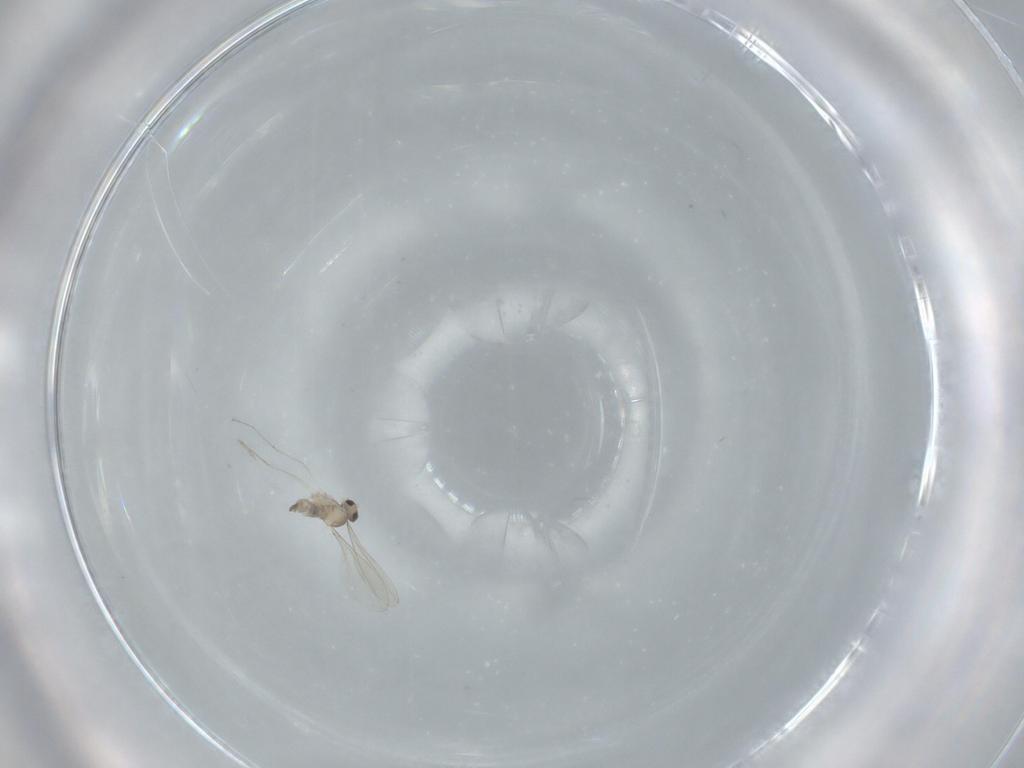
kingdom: Animalia
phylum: Arthropoda
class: Insecta
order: Diptera
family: Cecidomyiidae
